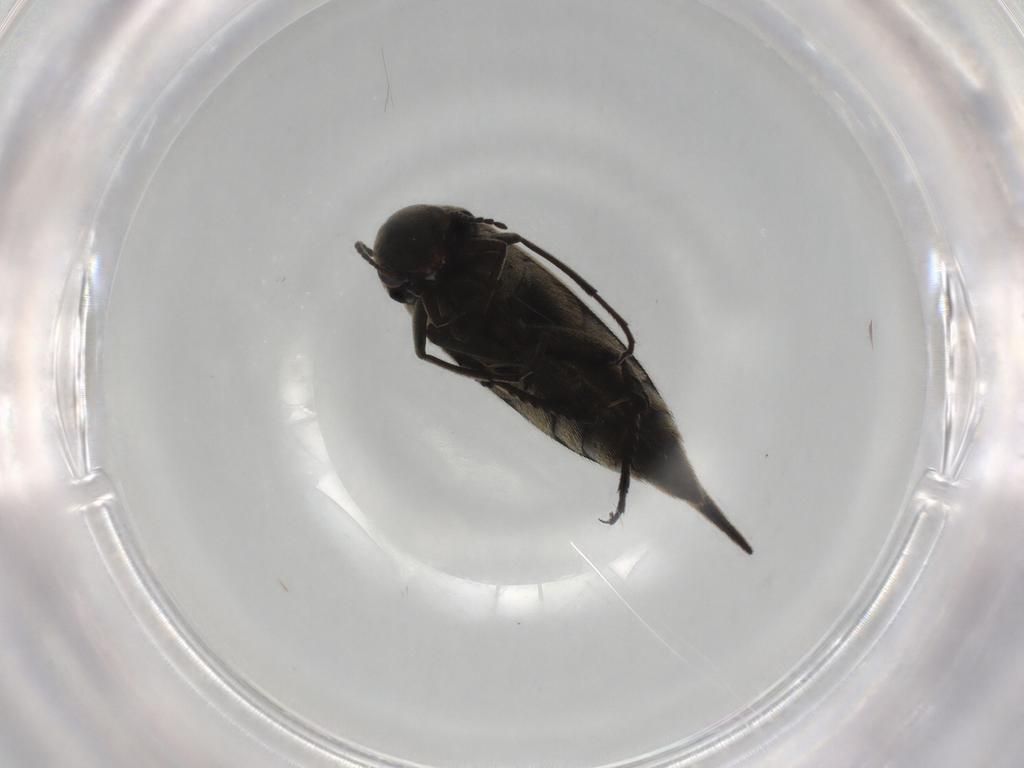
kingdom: Animalia
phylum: Arthropoda
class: Insecta
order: Coleoptera
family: Mordellidae
